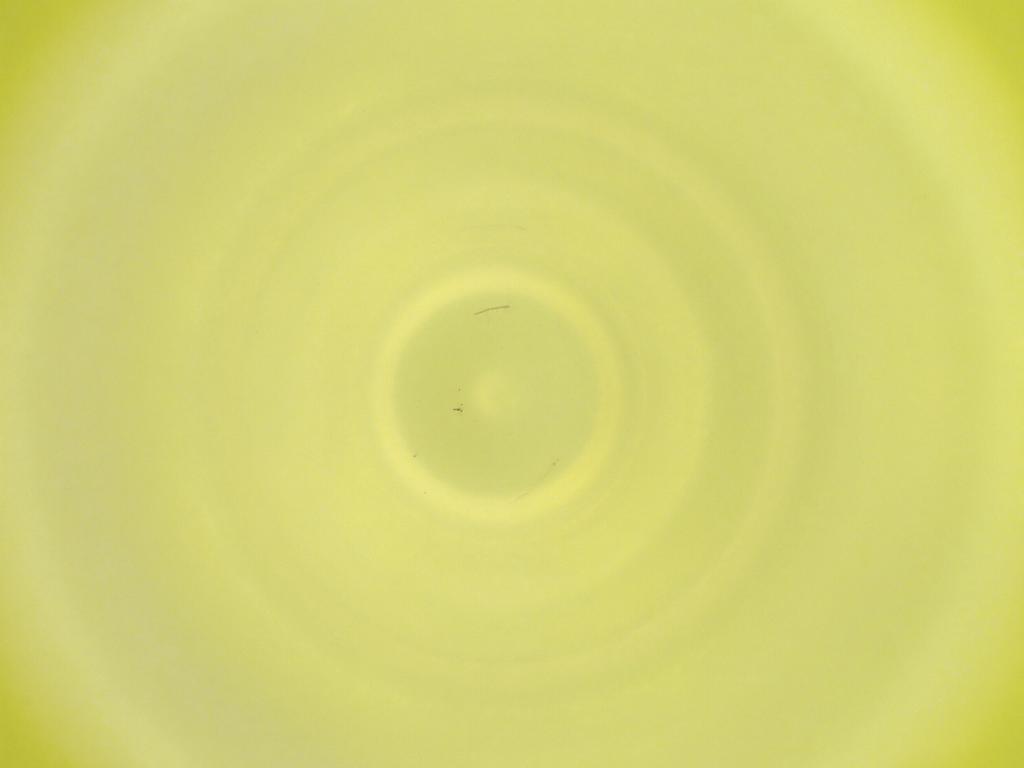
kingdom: Animalia
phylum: Arthropoda
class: Insecta
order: Diptera
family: Cecidomyiidae
